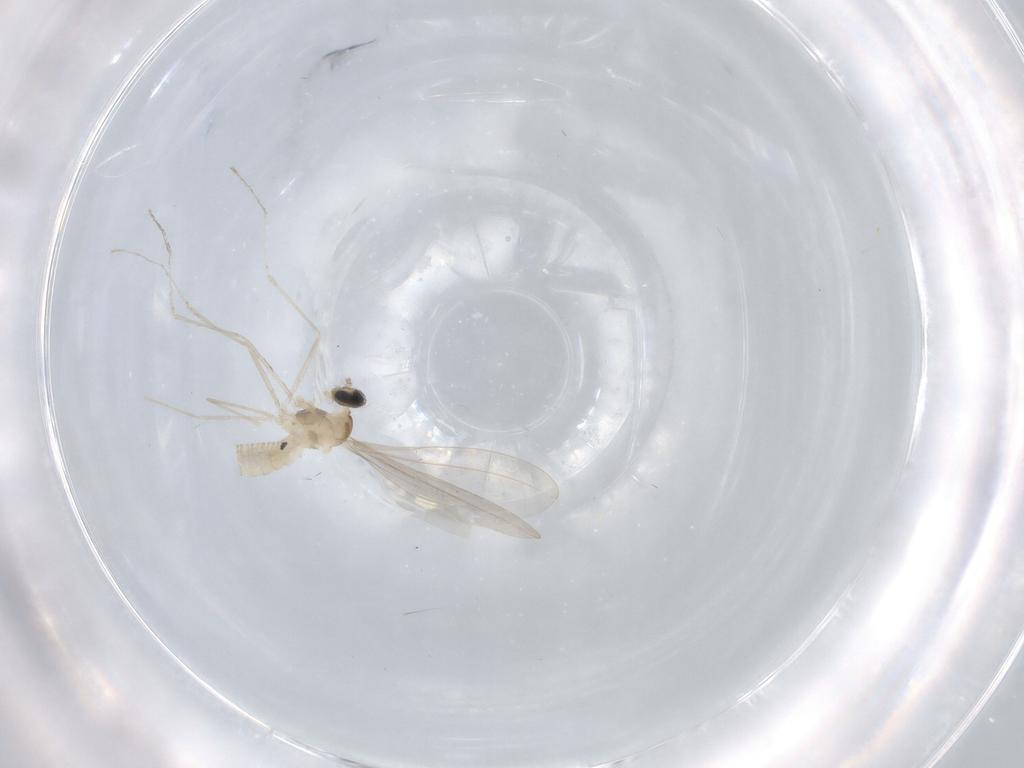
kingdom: Animalia
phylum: Arthropoda
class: Insecta
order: Diptera
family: Cecidomyiidae
